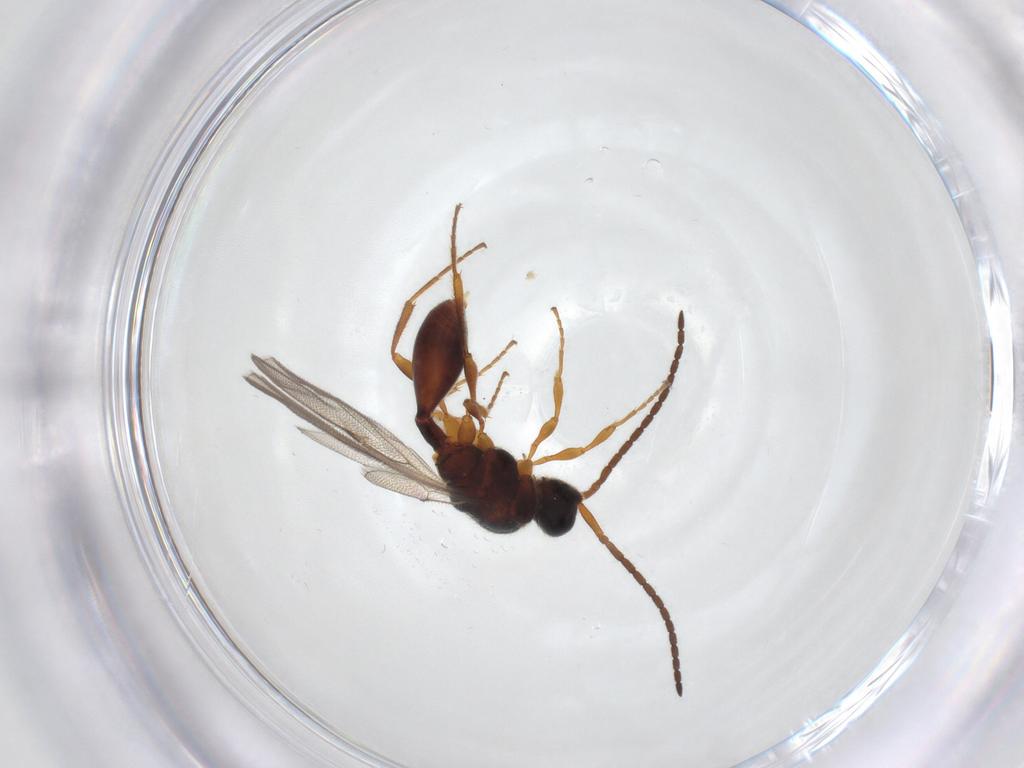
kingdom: Animalia
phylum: Arthropoda
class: Insecta
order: Hymenoptera
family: Diapriidae
